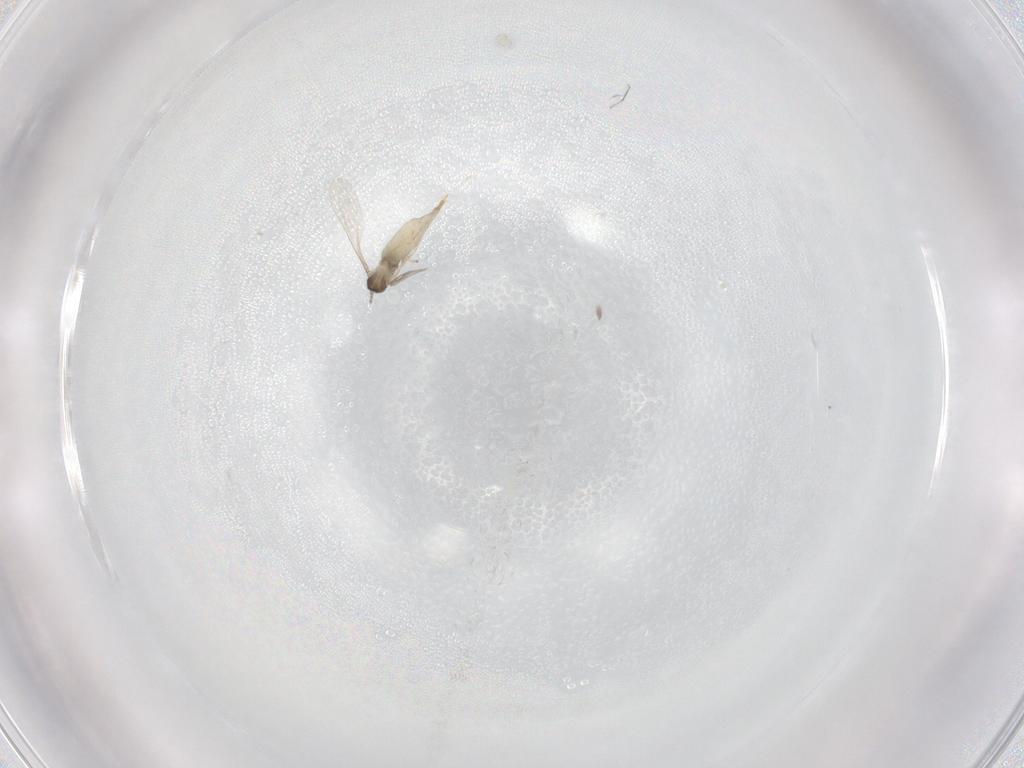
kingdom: Animalia
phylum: Arthropoda
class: Insecta
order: Diptera
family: Cecidomyiidae
